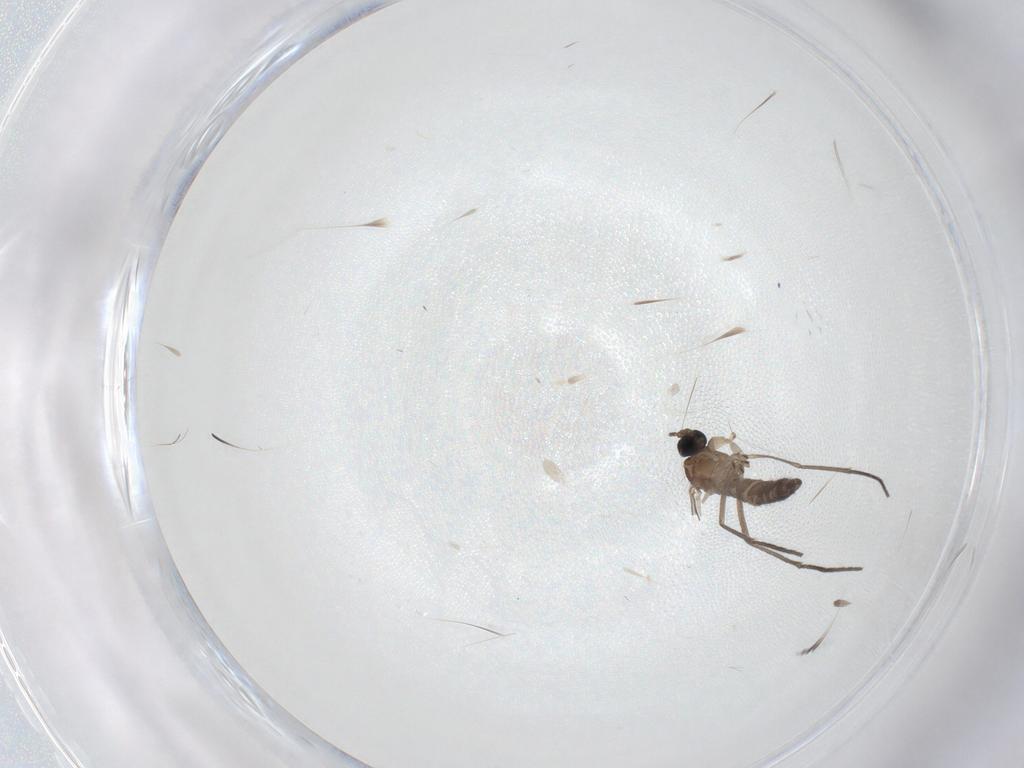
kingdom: Animalia
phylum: Arthropoda
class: Insecta
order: Diptera
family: Sciaridae
